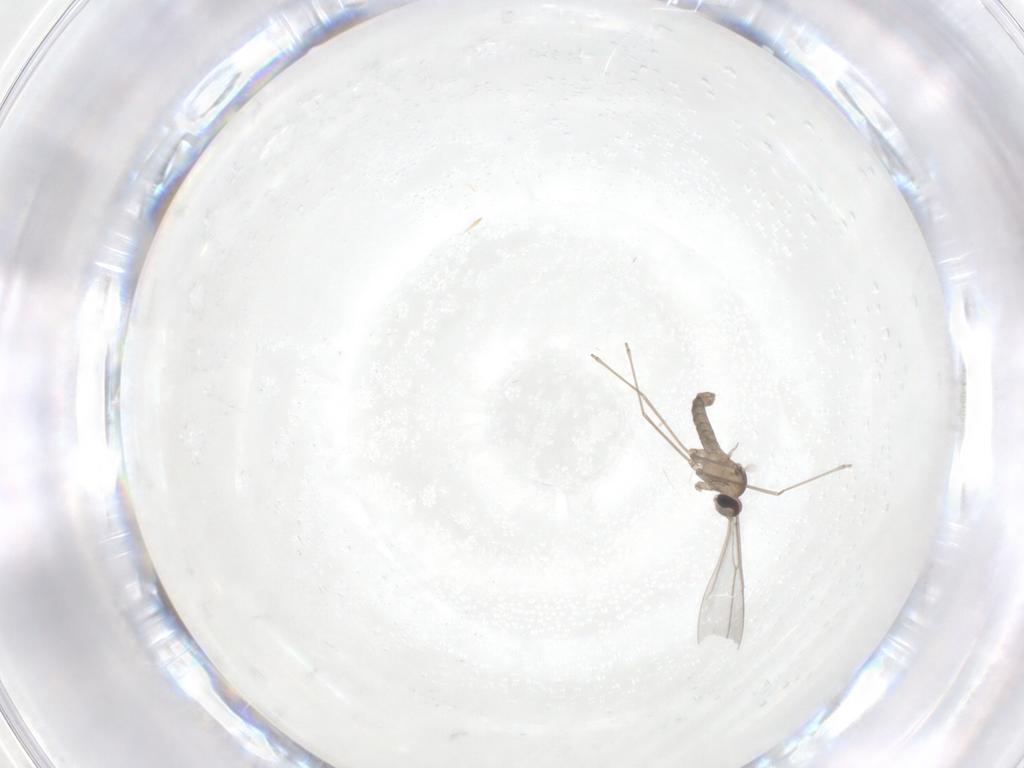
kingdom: Animalia
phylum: Arthropoda
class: Insecta
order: Diptera
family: Cecidomyiidae
